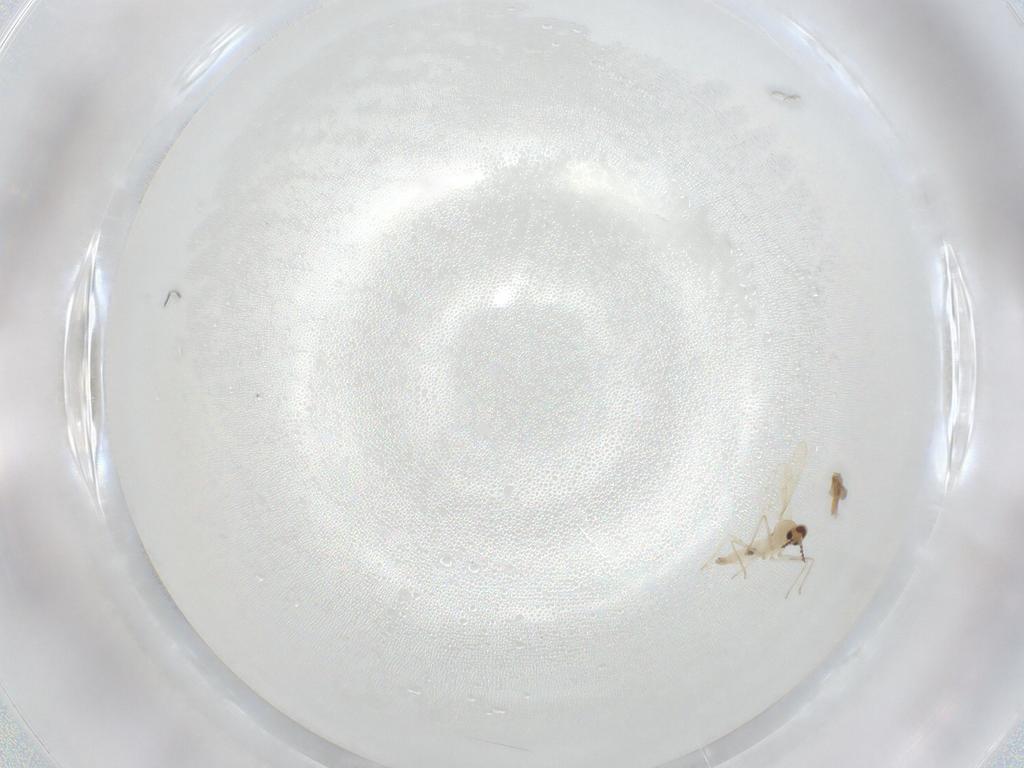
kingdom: Animalia
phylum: Arthropoda
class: Insecta
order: Diptera
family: Cecidomyiidae
